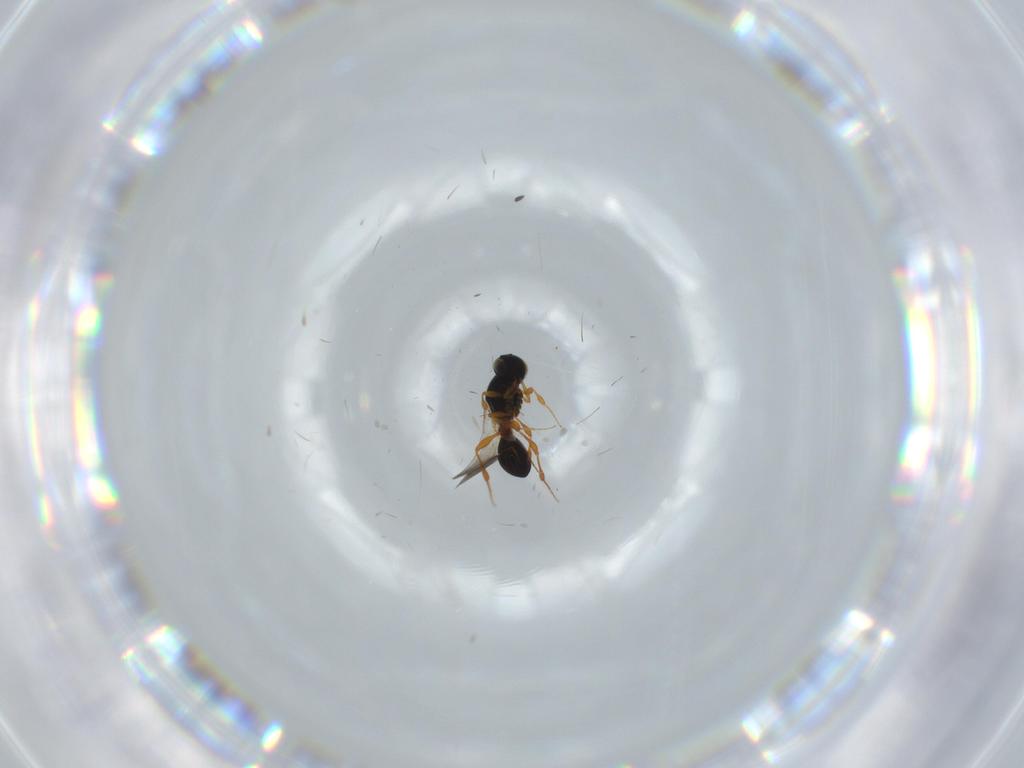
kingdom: Animalia
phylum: Arthropoda
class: Insecta
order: Hymenoptera
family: Platygastridae
